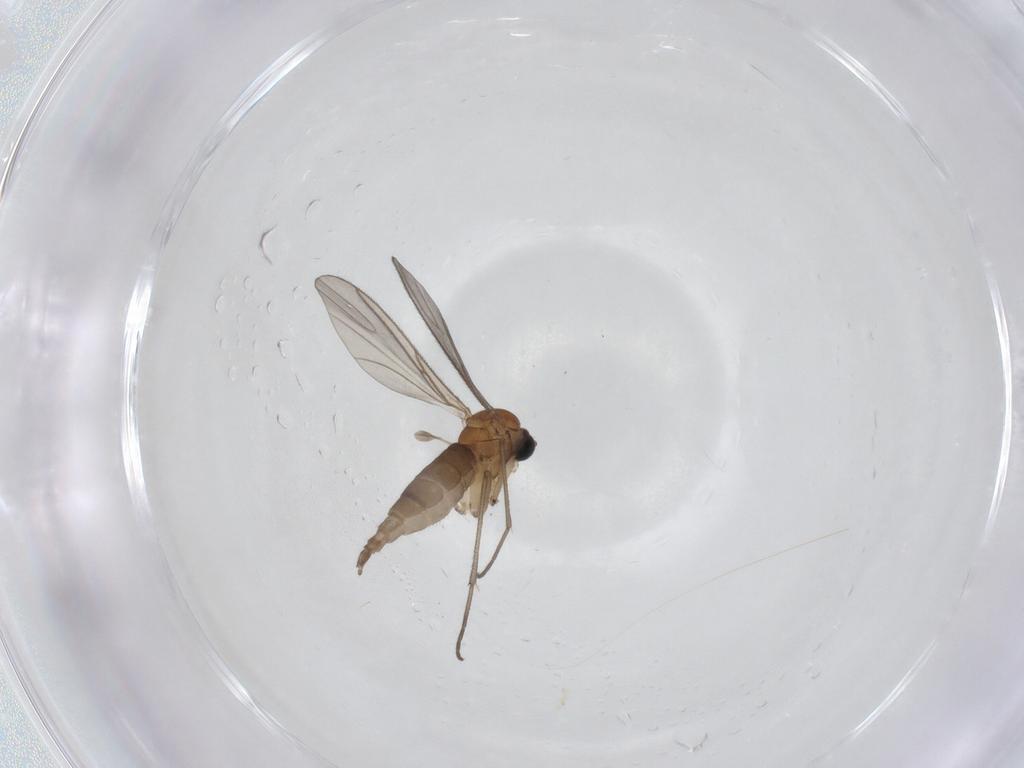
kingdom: Animalia
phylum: Arthropoda
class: Insecta
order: Diptera
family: Sciaridae
